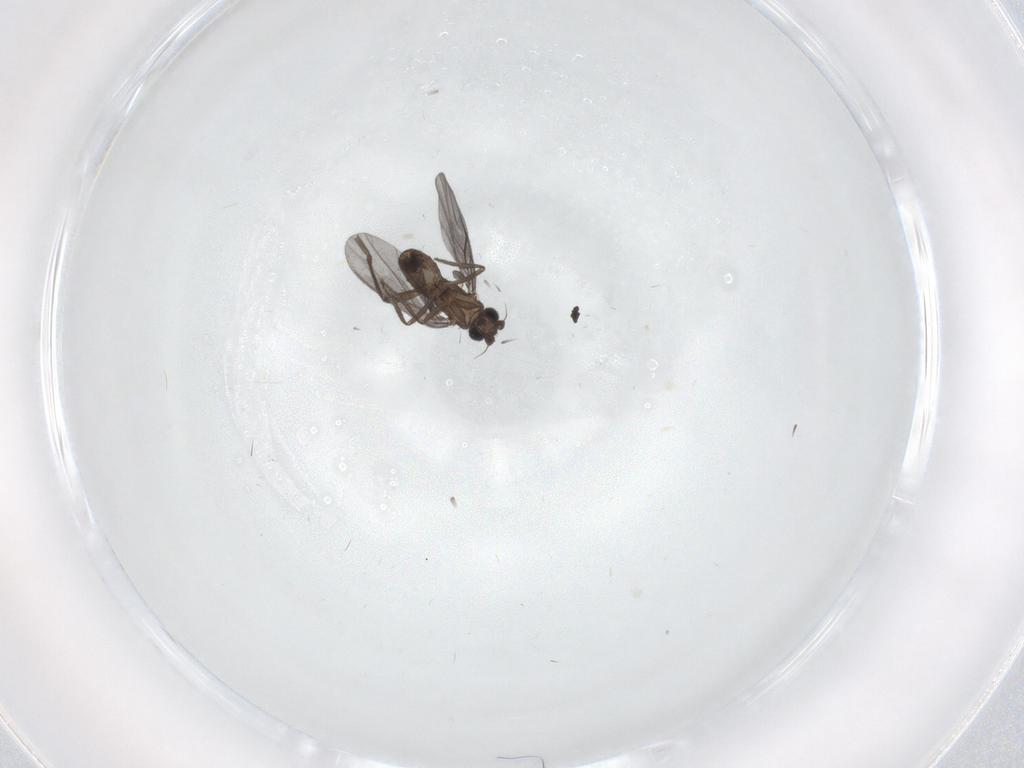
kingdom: Animalia
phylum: Arthropoda
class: Insecta
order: Diptera
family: Phoridae
